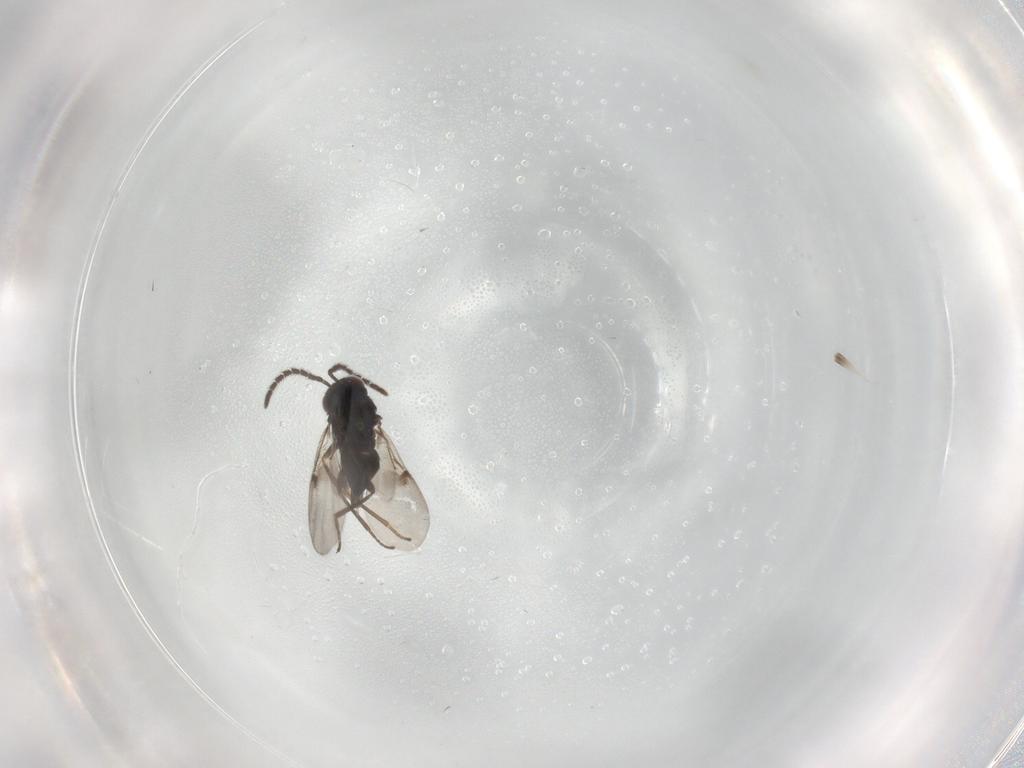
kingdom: Animalia
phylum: Arthropoda
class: Insecta
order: Hymenoptera
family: Encyrtidae
